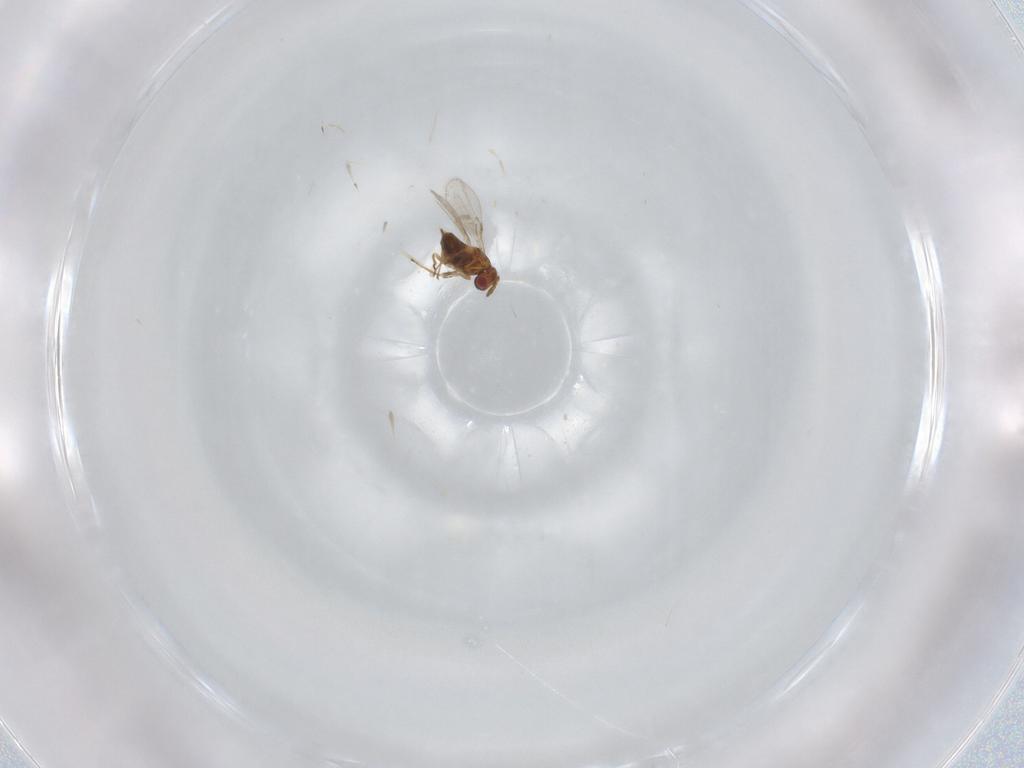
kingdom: Animalia
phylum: Arthropoda
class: Insecta
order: Hymenoptera
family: Ichneumonidae
